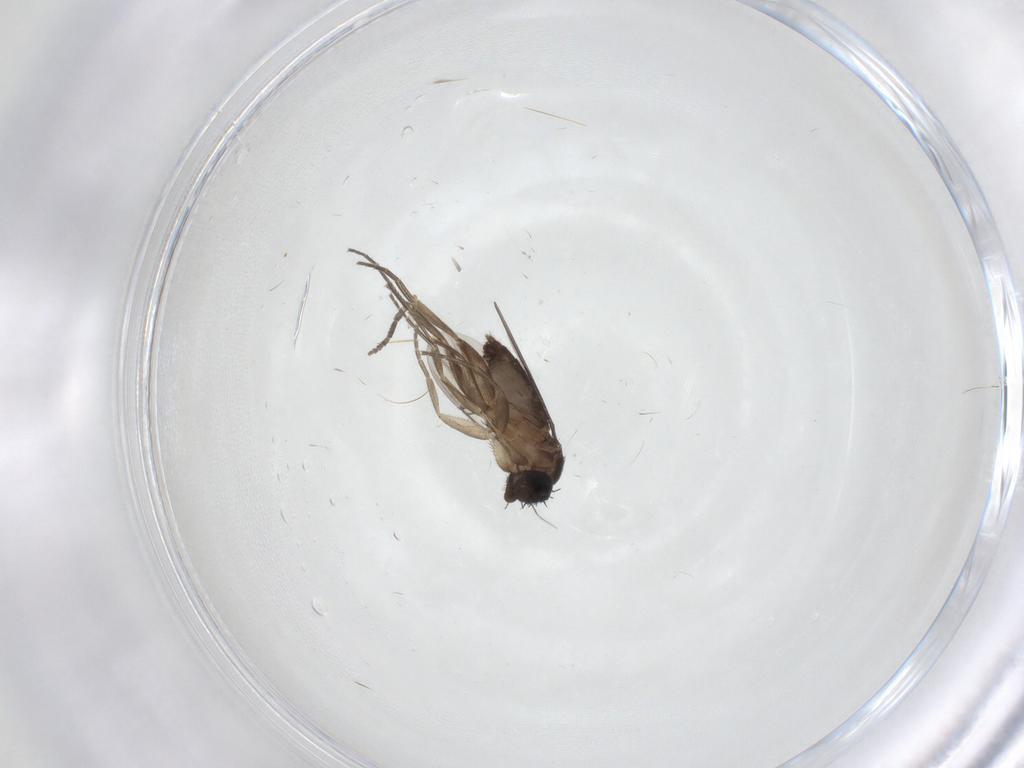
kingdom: Animalia
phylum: Arthropoda
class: Insecta
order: Diptera
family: Phoridae
